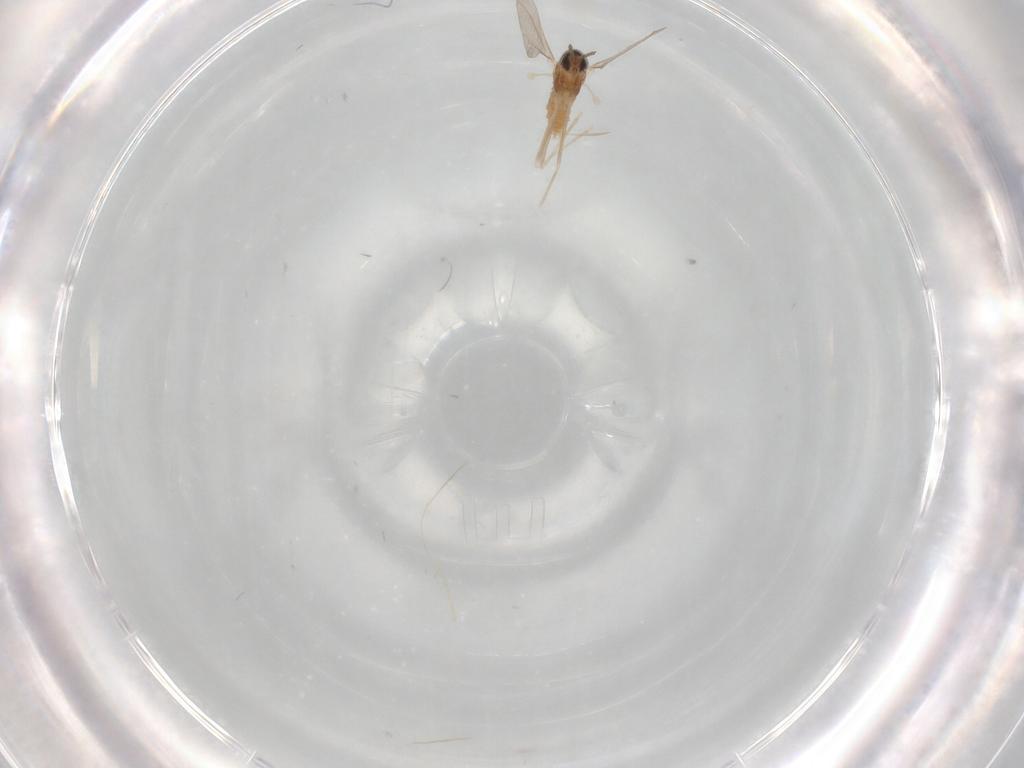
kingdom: Animalia
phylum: Arthropoda
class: Insecta
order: Diptera
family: Cecidomyiidae
